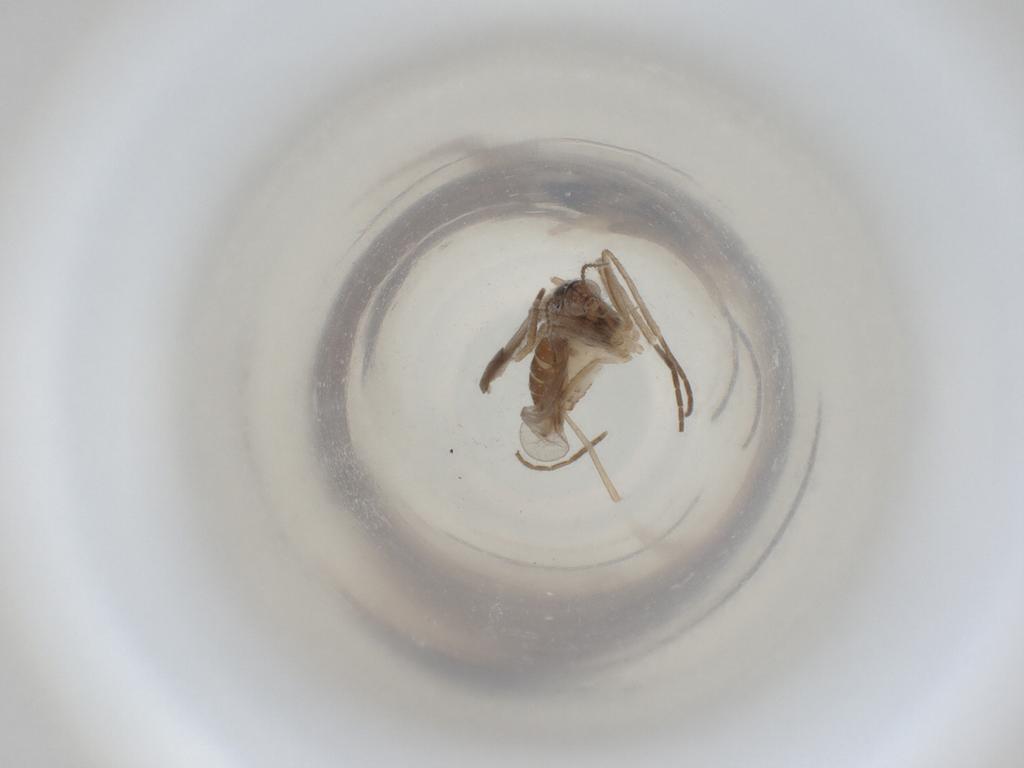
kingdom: Animalia
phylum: Arthropoda
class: Insecta
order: Diptera
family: Cecidomyiidae
